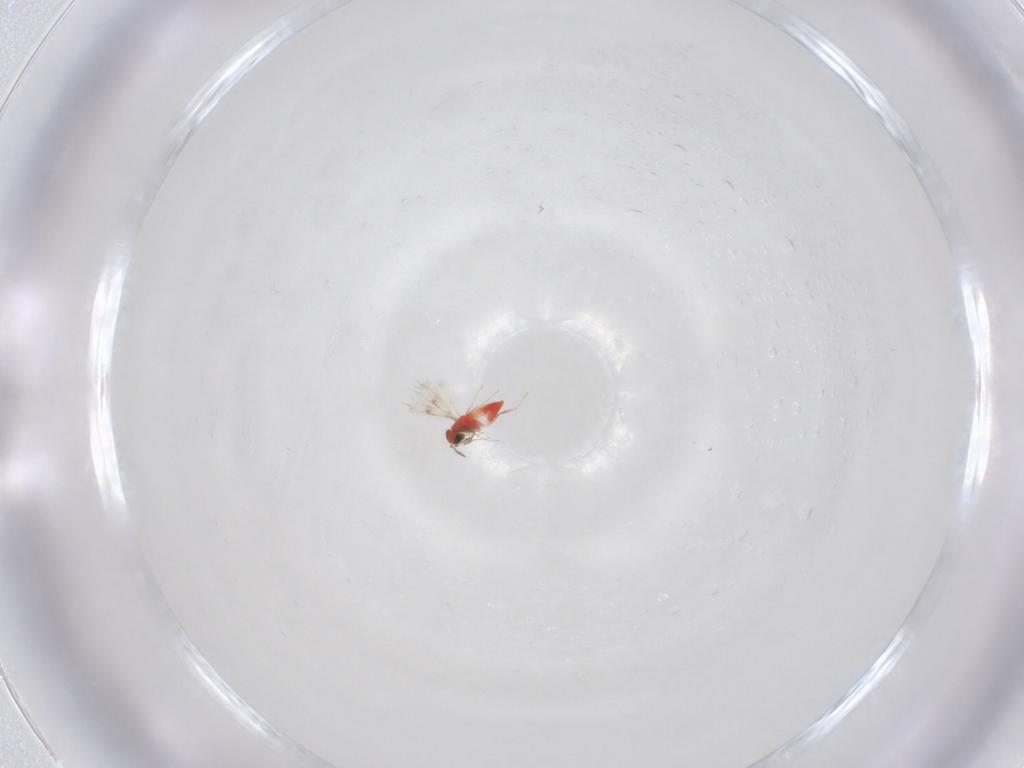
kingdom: Animalia
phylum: Arthropoda
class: Insecta
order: Hymenoptera
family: Trichogrammatidae
